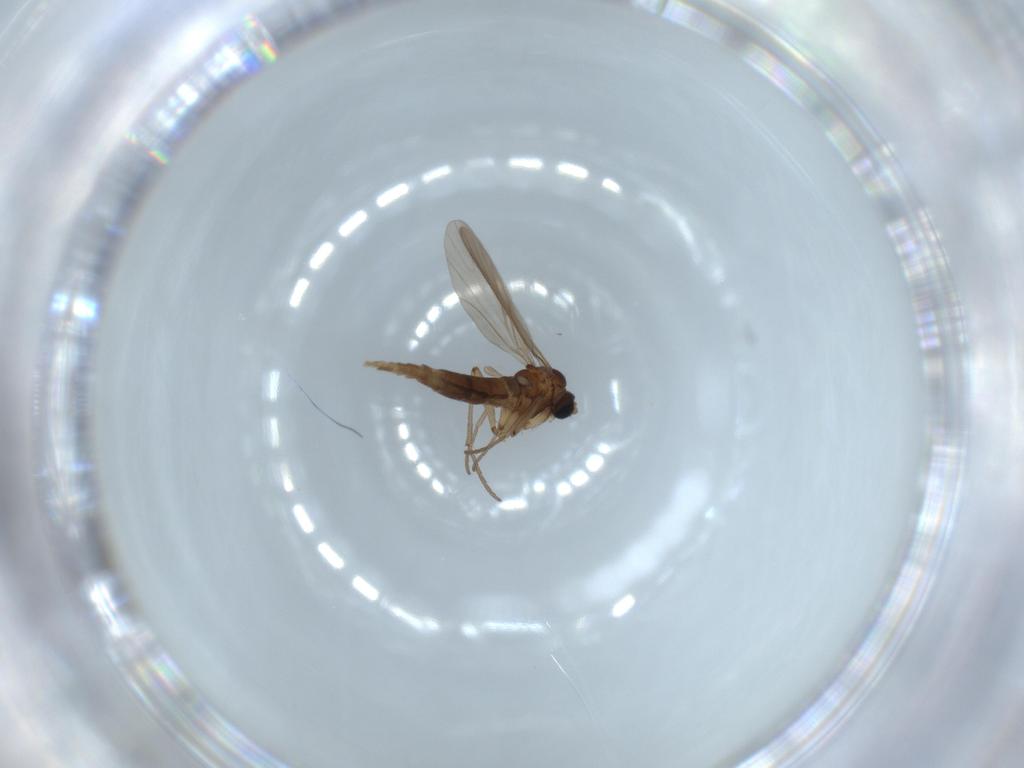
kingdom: Animalia
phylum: Arthropoda
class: Insecta
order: Diptera
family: Sciaridae
